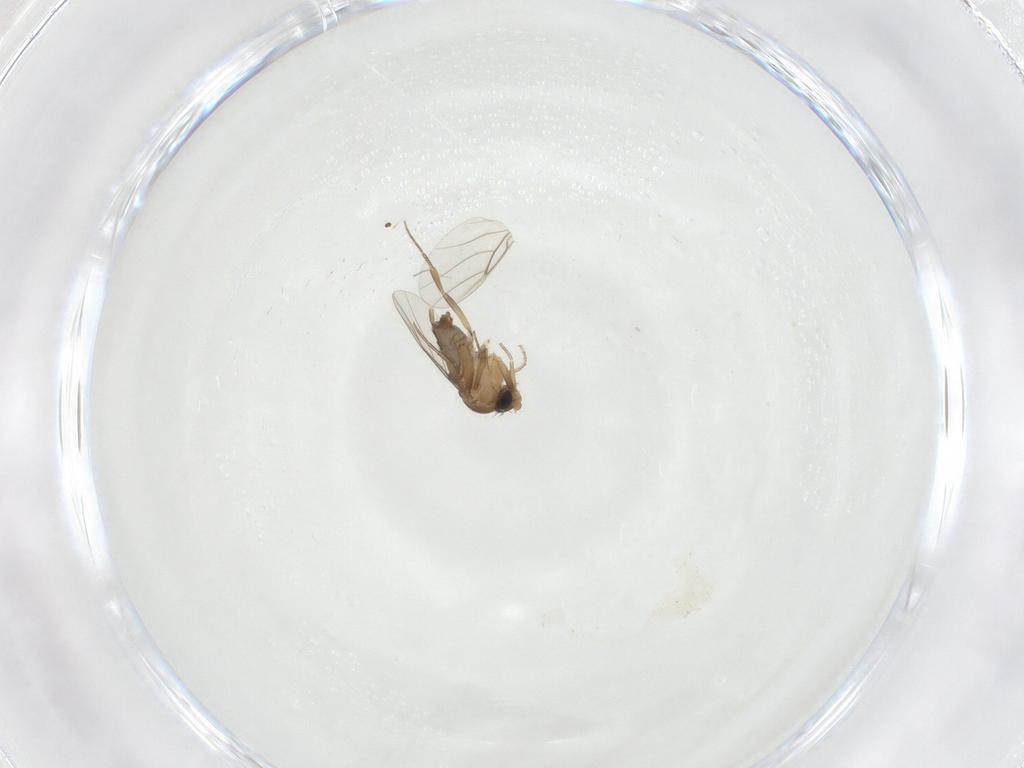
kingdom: Animalia
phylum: Arthropoda
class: Insecta
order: Diptera
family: Phoridae
